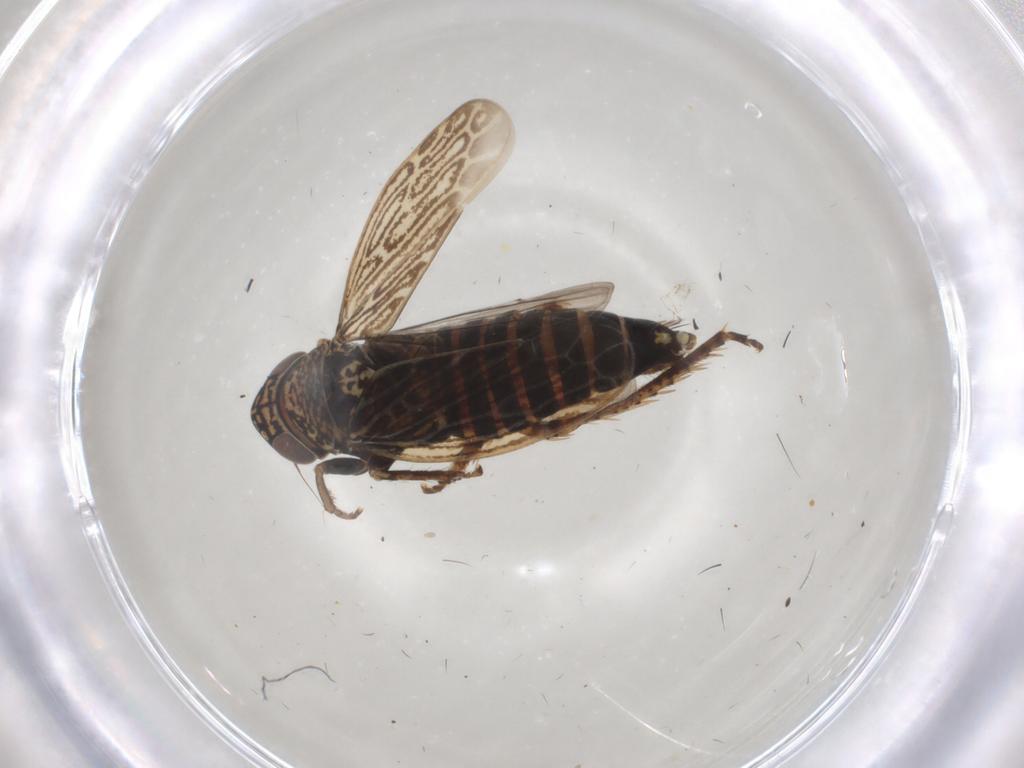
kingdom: Animalia
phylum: Arthropoda
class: Insecta
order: Hemiptera
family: Cicadellidae
